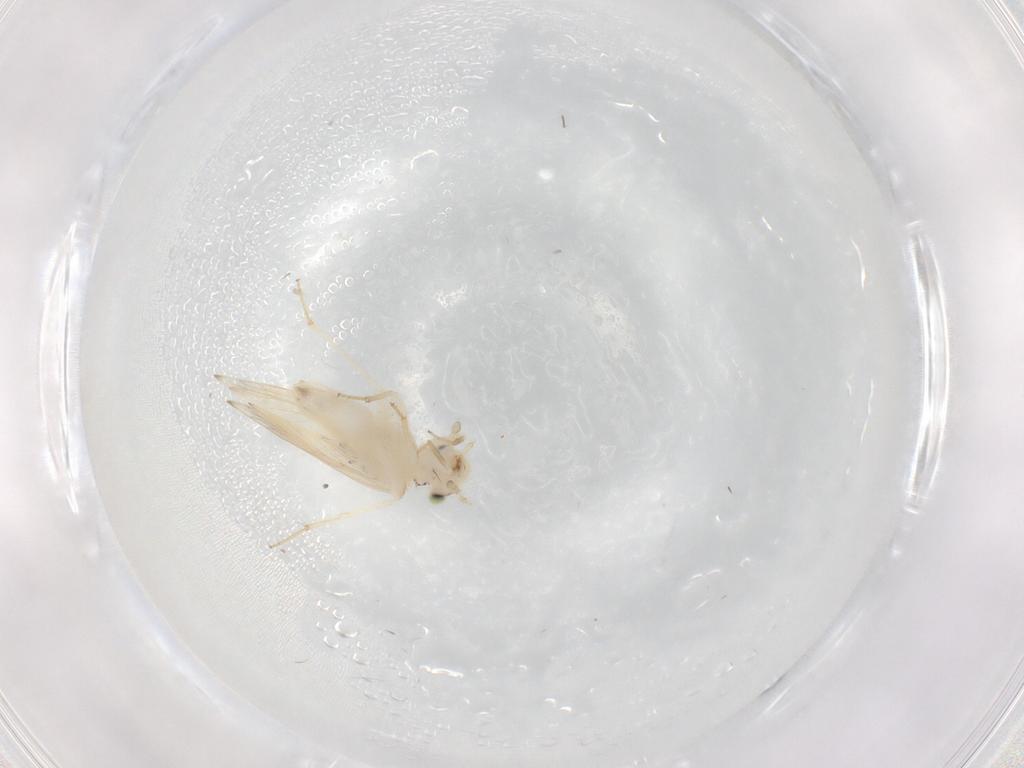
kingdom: Animalia
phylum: Arthropoda
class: Insecta
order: Psocodea
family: Lepidopsocidae
